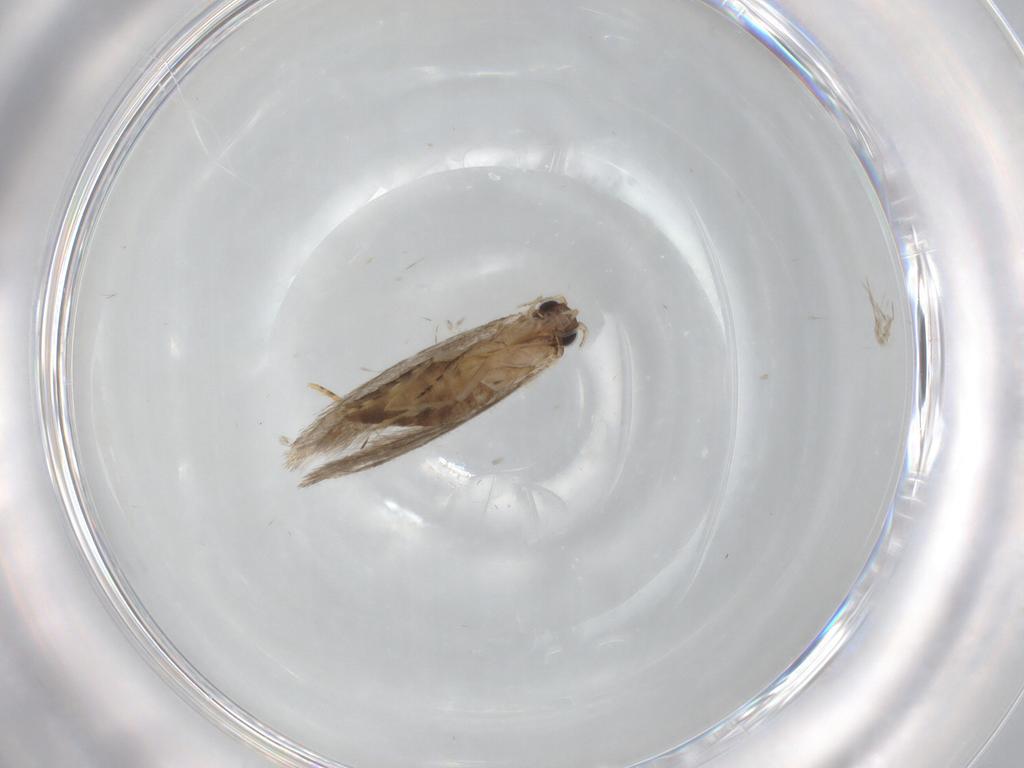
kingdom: Animalia
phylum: Arthropoda
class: Insecta
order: Lepidoptera
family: Tineidae
